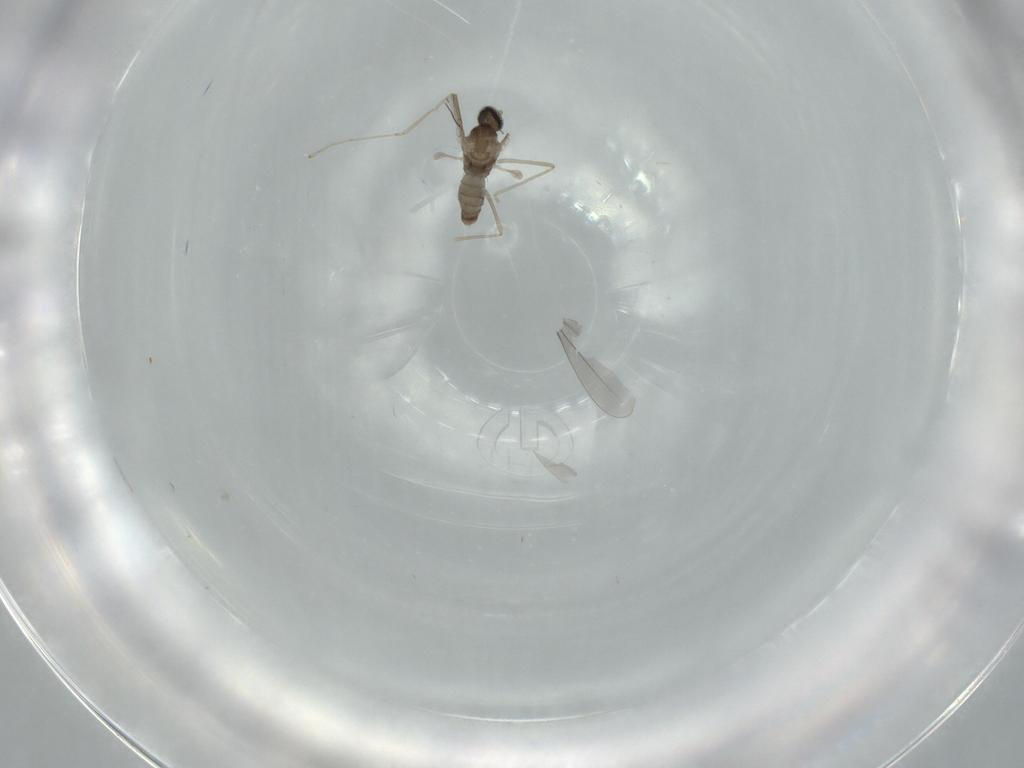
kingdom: Animalia
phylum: Arthropoda
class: Insecta
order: Diptera
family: Cecidomyiidae
